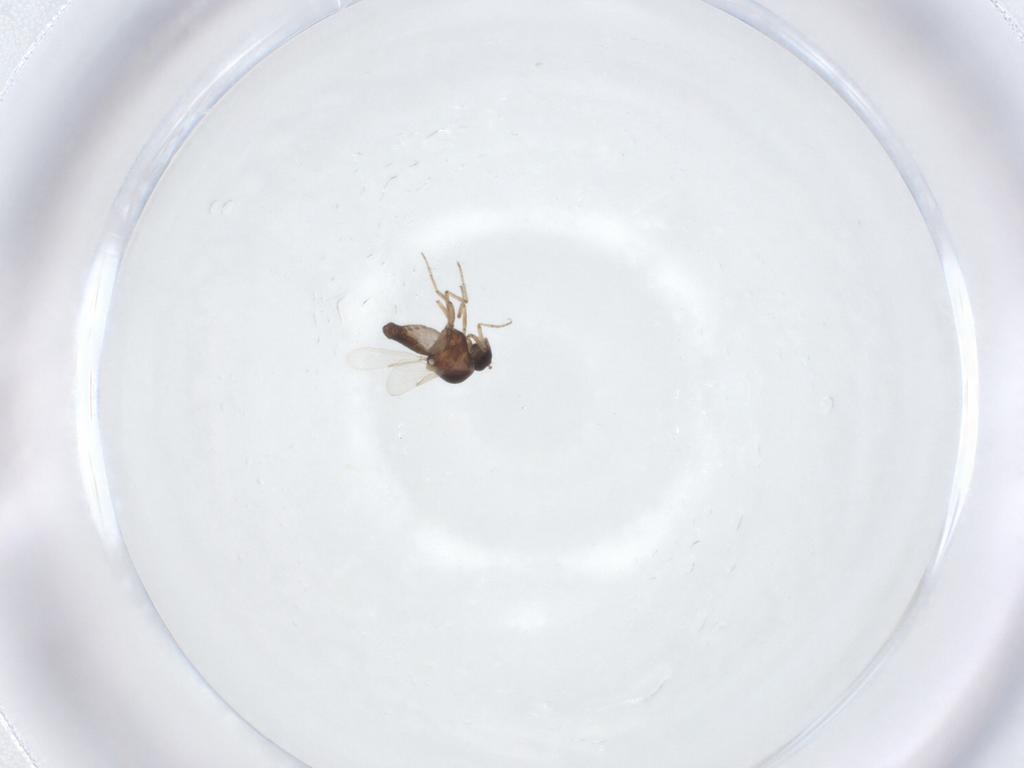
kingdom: Animalia
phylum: Arthropoda
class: Insecta
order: Diptera
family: Ceratopogonidae
